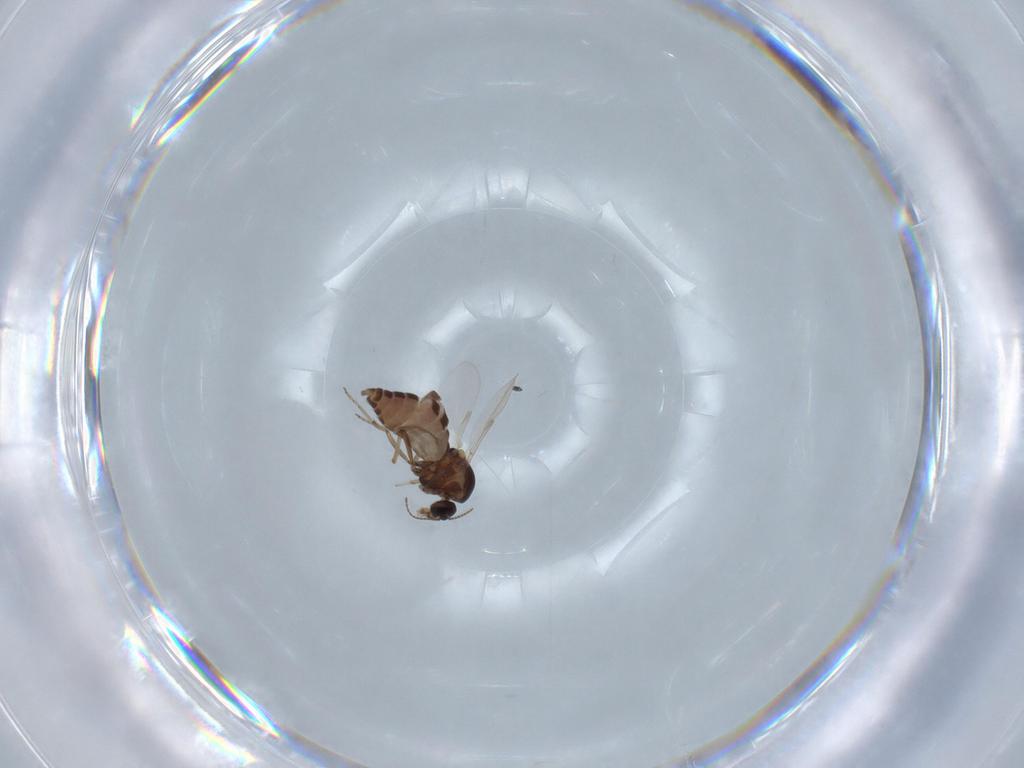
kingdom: Animalia
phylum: Arthropoda
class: Insecta
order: Diptera
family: Ceratopogonidae
